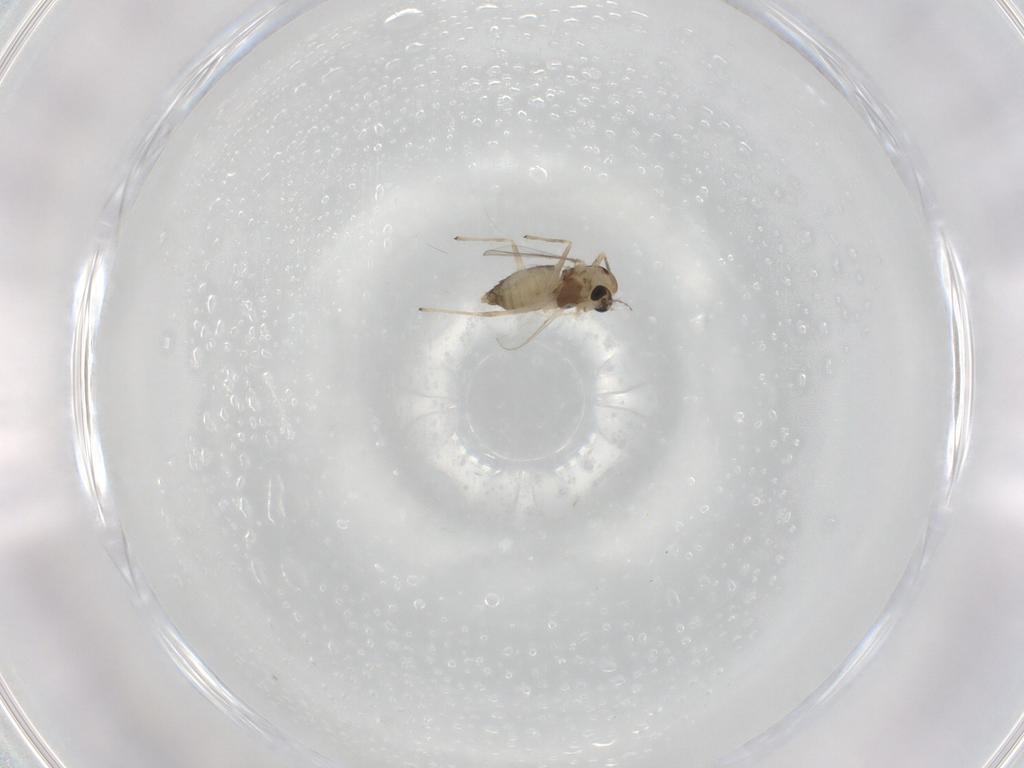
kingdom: Animalia
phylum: Arthropoda
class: Insecta
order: Diptera
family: Chironomidae
